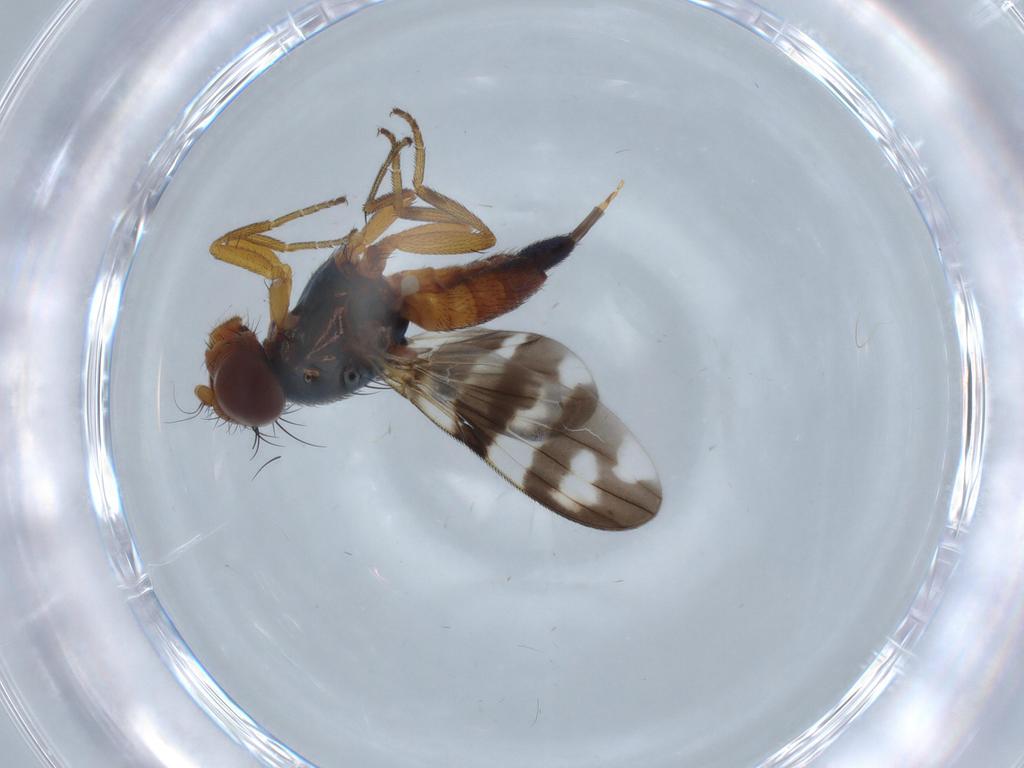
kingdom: Animalia
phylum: Arthropoda
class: Insecta
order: Diptera
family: Ulidiidae
